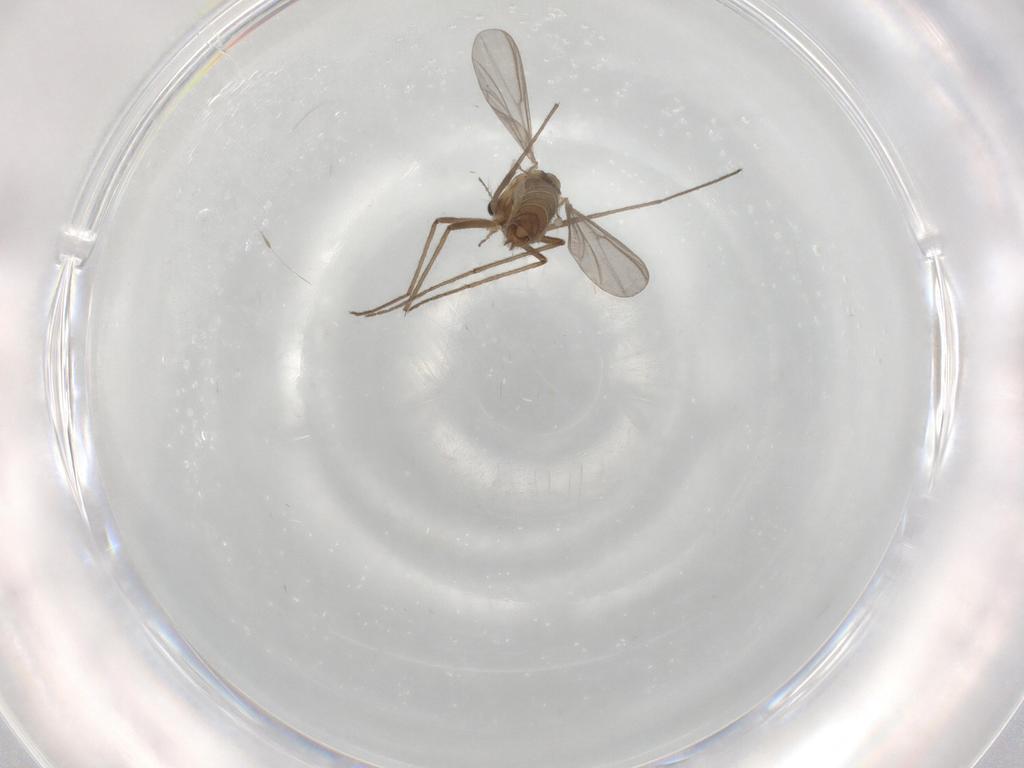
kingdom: Animalia
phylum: Arthropoda
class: Insecta
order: Diptera
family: Chironomidae
